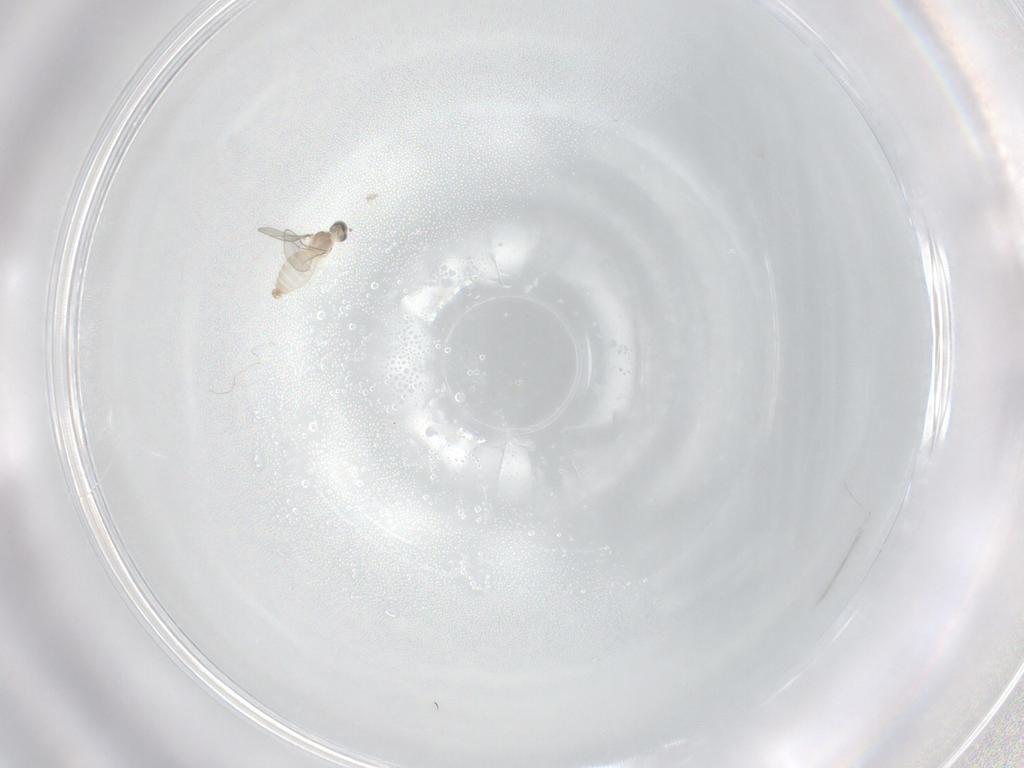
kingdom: Animalia
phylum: Arthropoda
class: Insecta
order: Diptera
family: Cecidomyiidae
